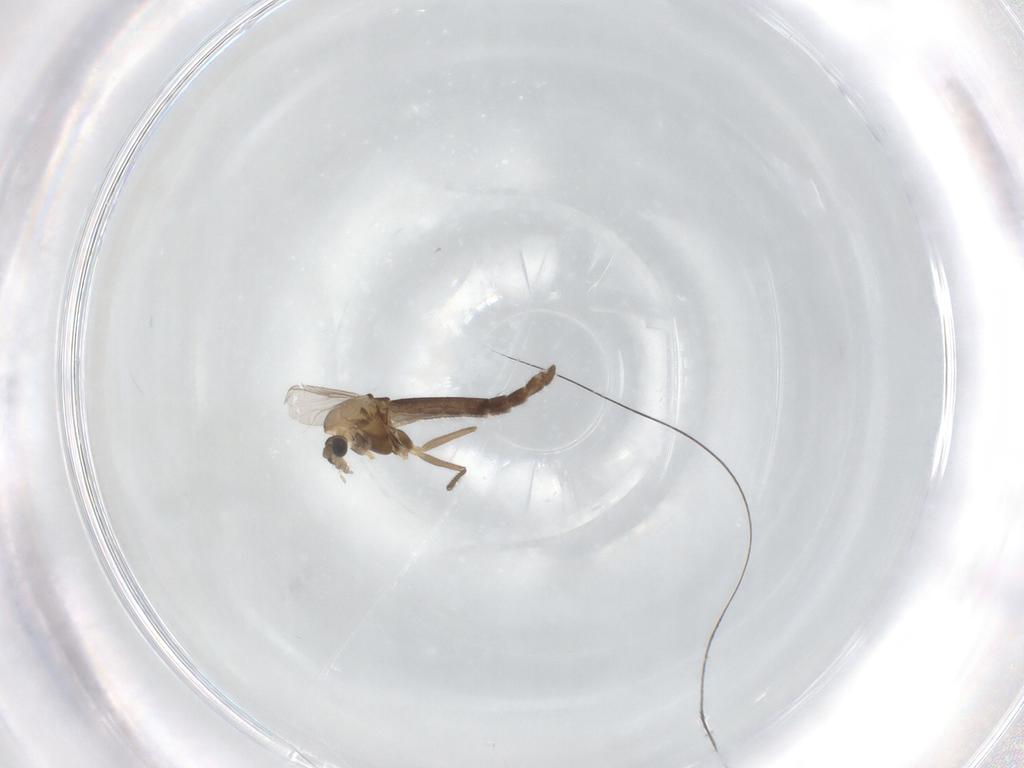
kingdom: Animalia
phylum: Arthropoda
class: Insecta
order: Diptera
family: Chironomidae
